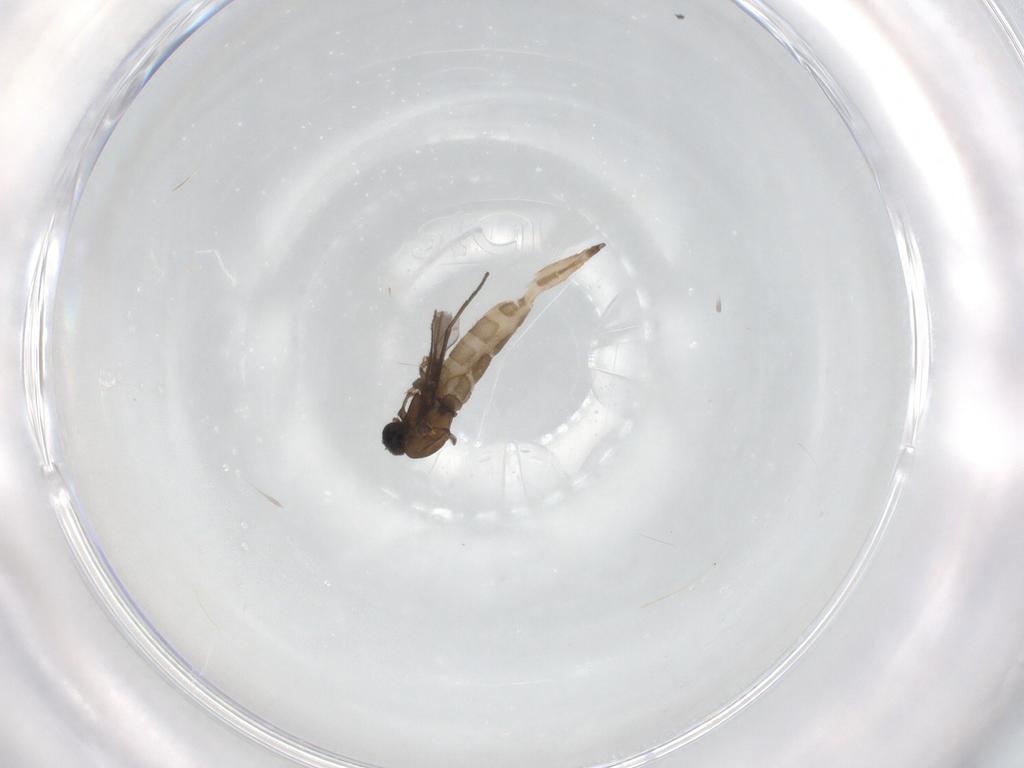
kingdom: Animalia
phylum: Arthropoda
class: Insecta
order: Diptera
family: Sciaridae
